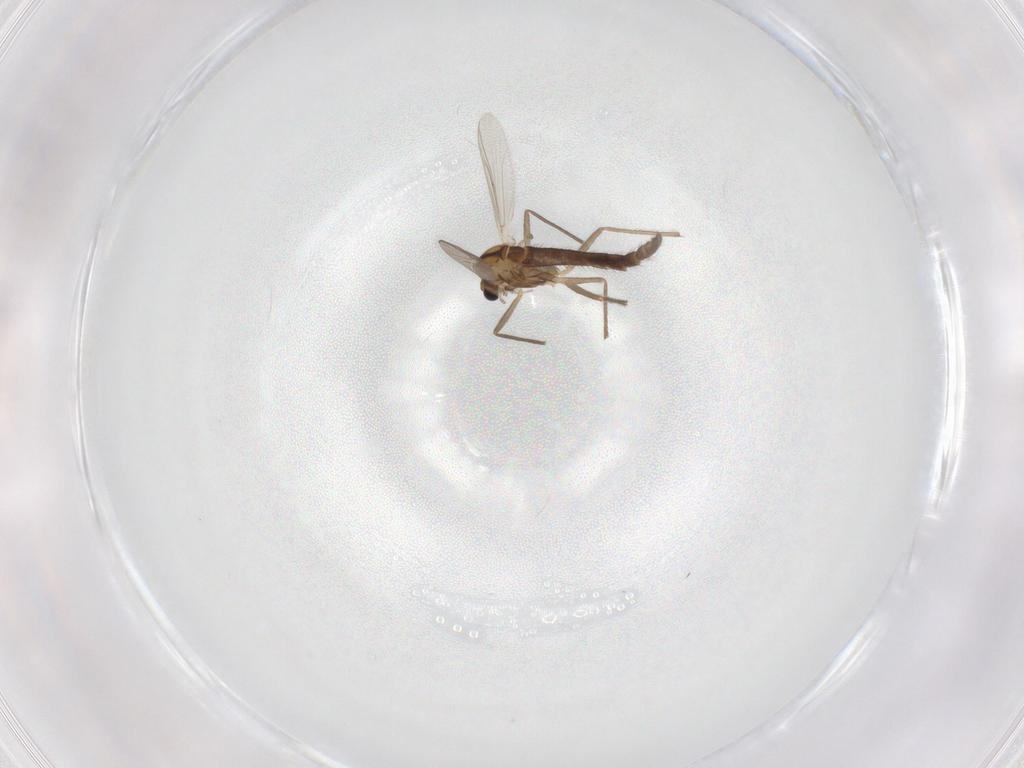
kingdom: Animalia
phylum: Arthropoda
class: Insecta
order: Diptera
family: Chironomidae
